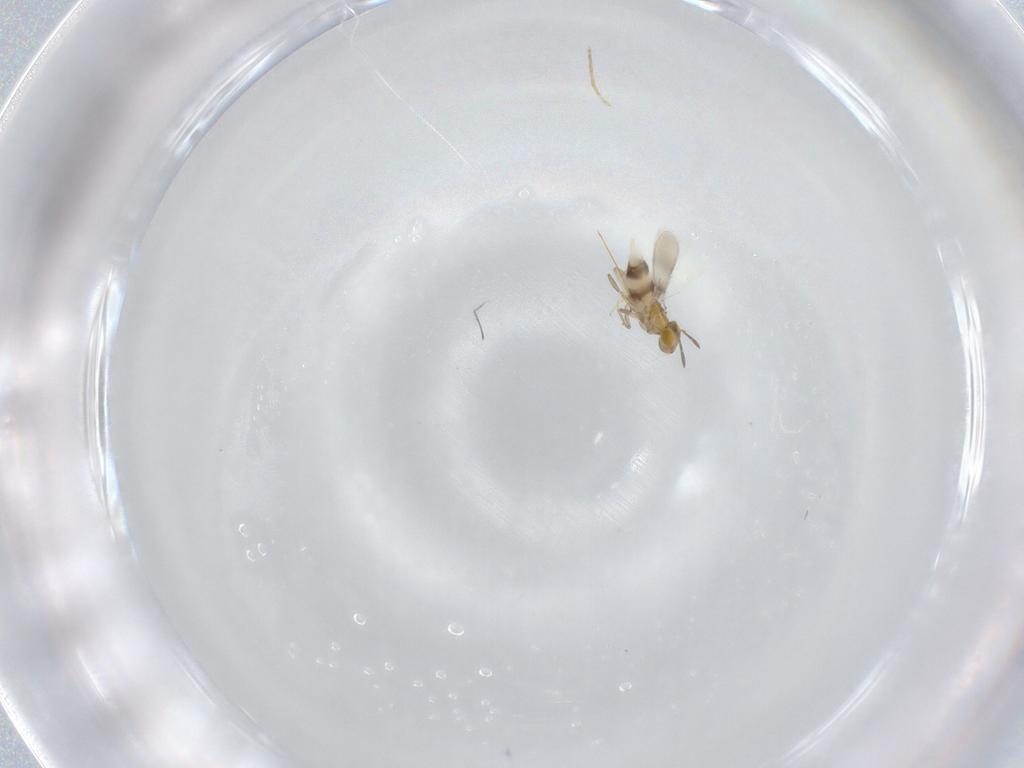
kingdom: Animalia
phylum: Arthropoda
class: Insecta
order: Hymenoptera
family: Aphelinidae
